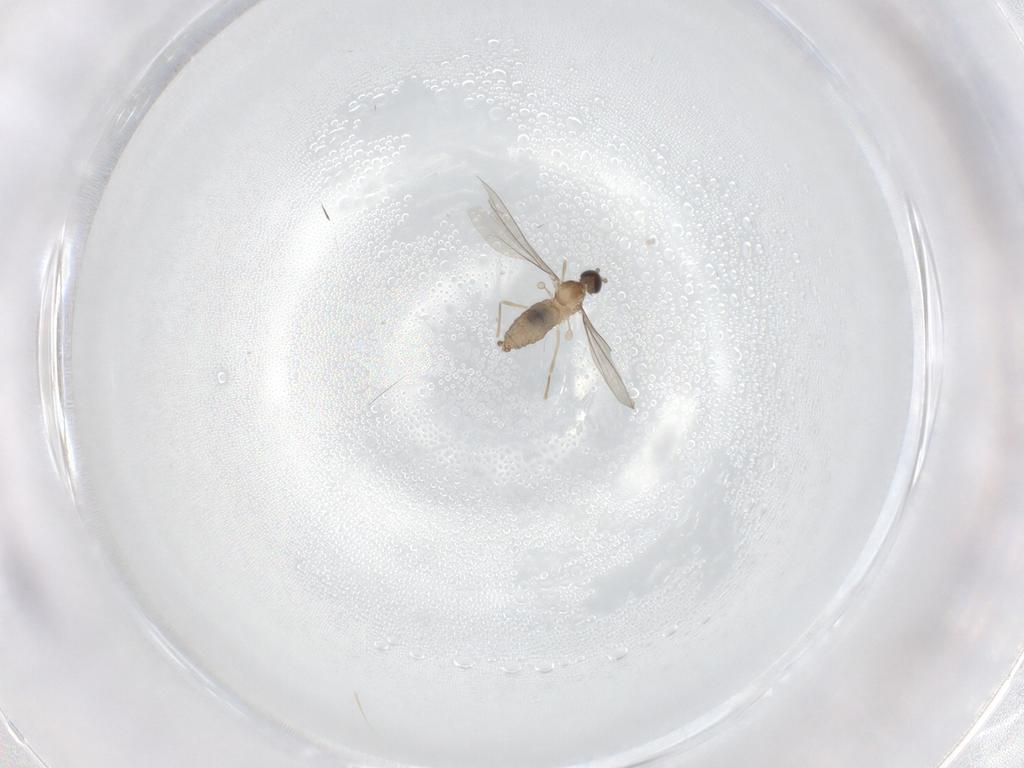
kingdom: Animalia
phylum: Arthropoda
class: Insecta
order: Diptera
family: Cecidomyiidae
